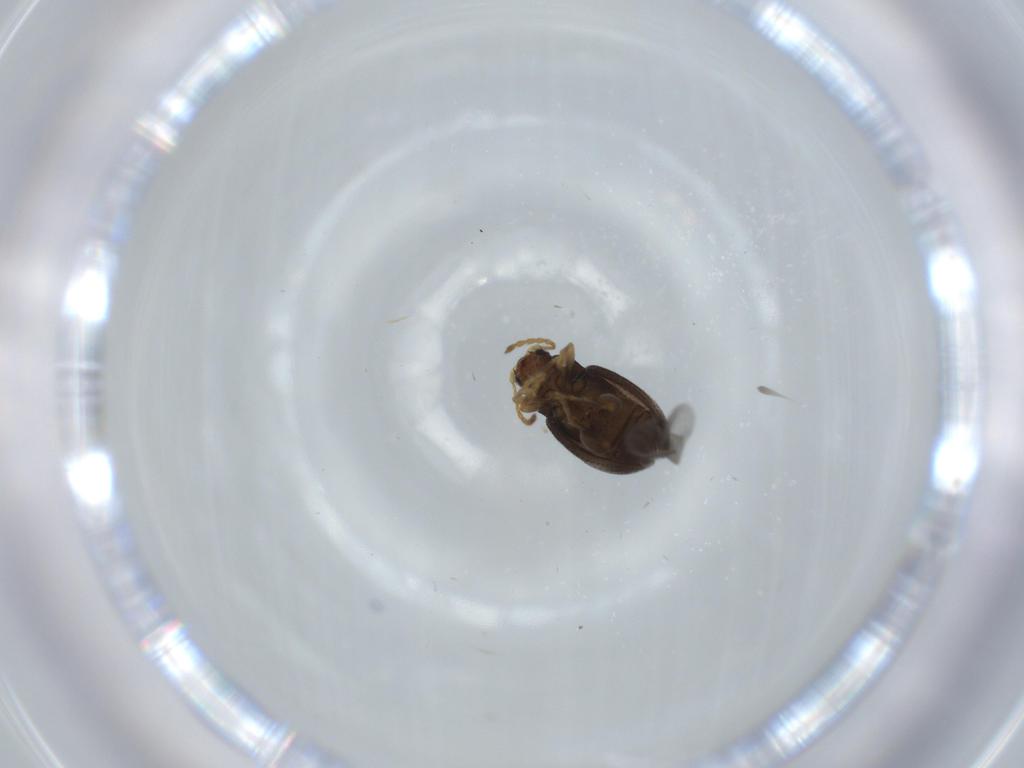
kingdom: Animalia
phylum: Arthropoda
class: Insecta
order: Coleoptera
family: Chrysomelidae
